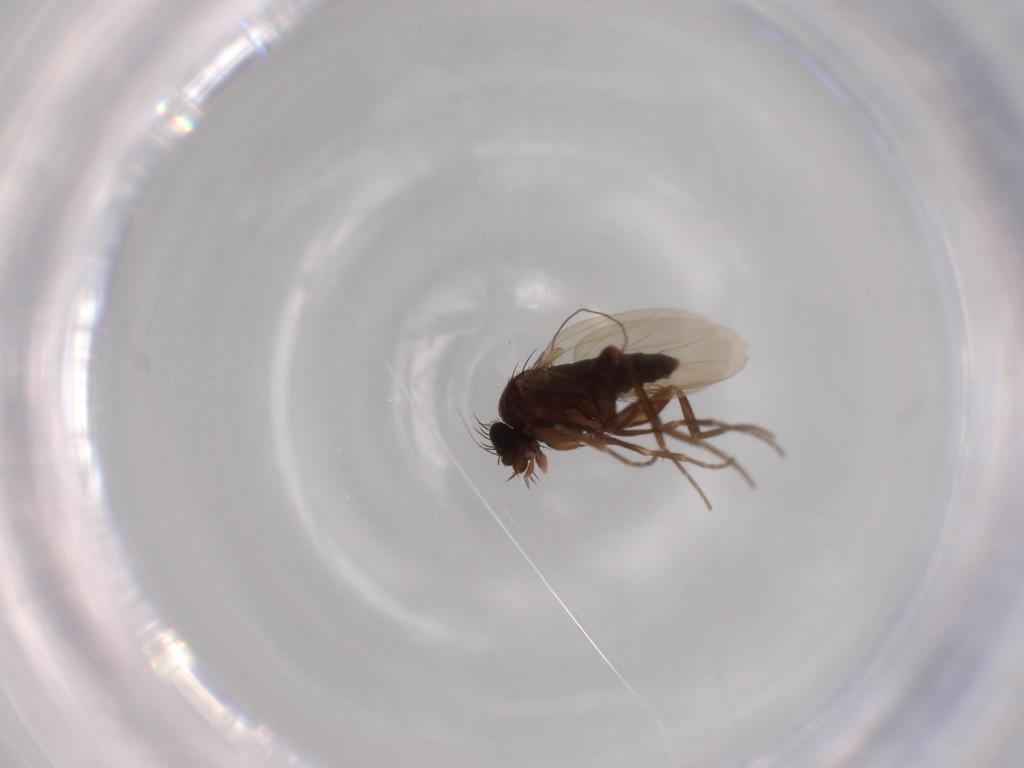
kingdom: Animalia
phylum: Arthropoda
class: Insecta
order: Diptera
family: Phoridae
